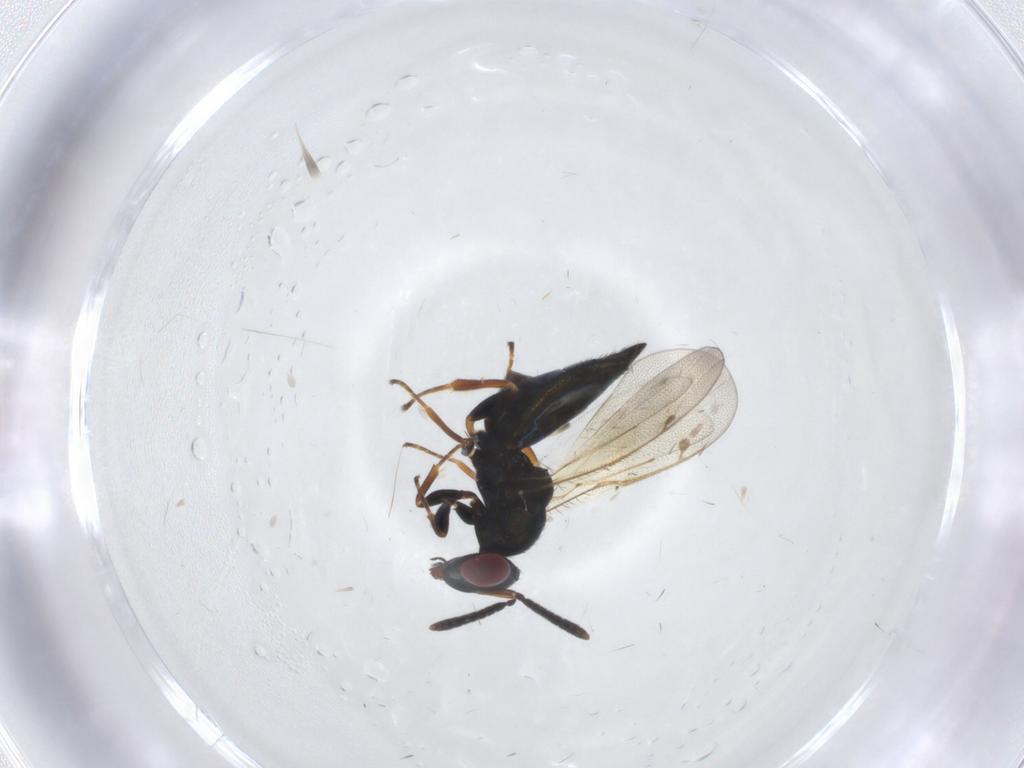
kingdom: Animalia
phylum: Arthropoda
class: Insecta
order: Hymenoptera
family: Pteromalidae
